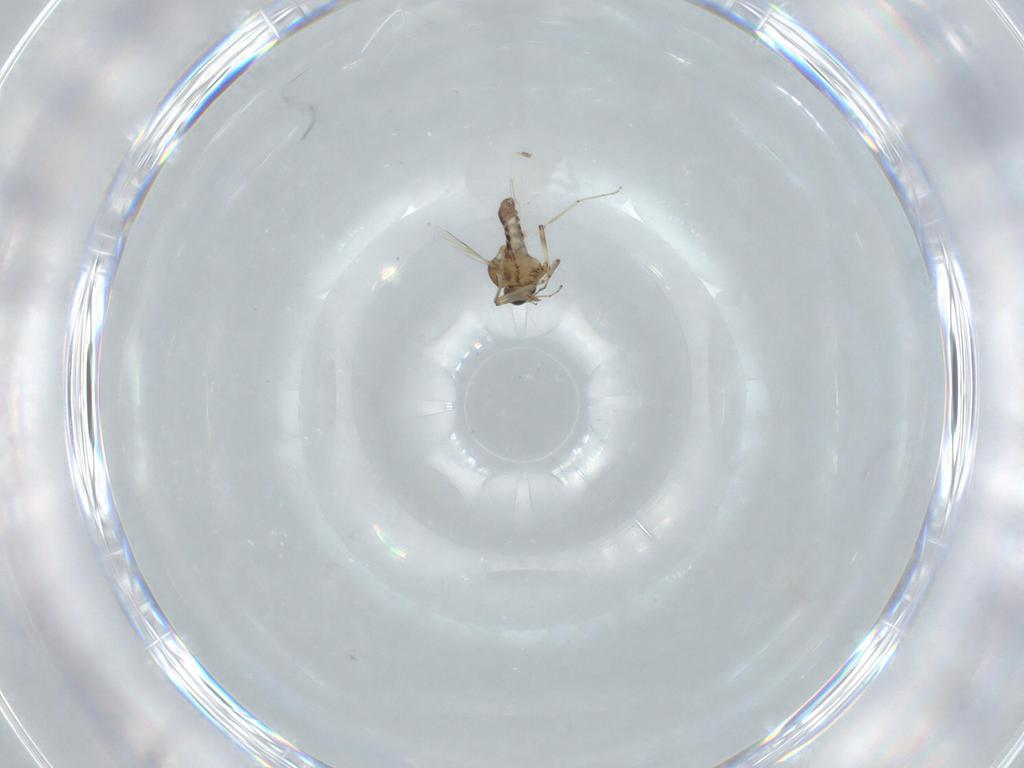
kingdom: Animalia
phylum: Arthropoda
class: Insecta
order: Diptera
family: Ceratopogonidae
